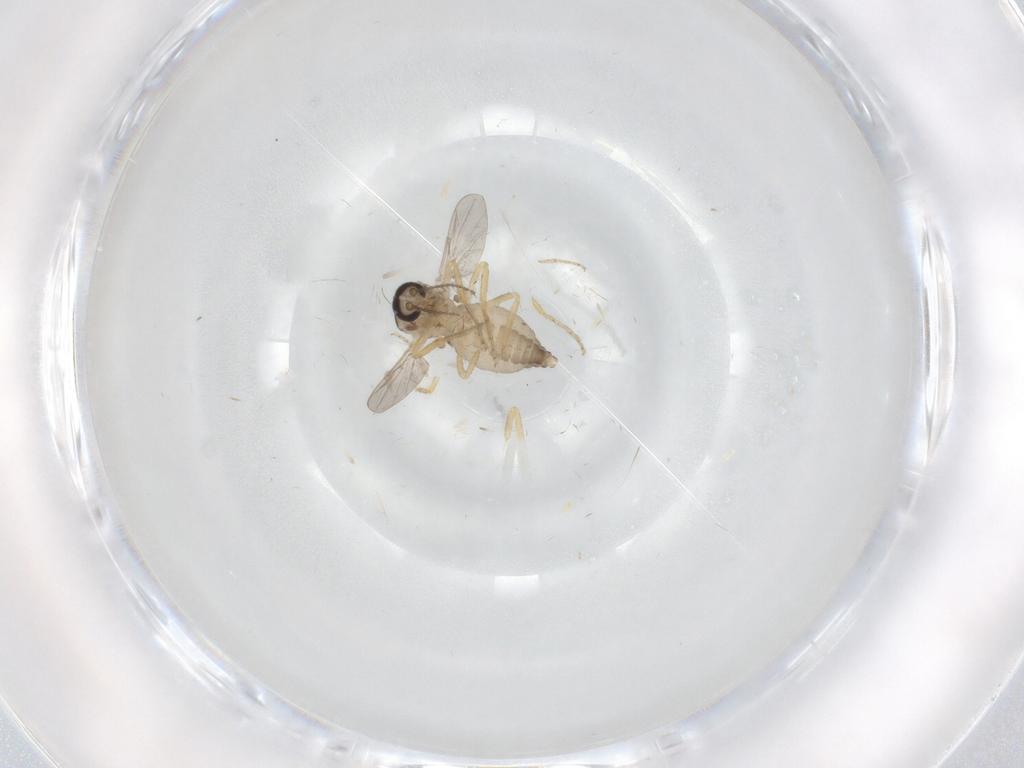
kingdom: Animalia
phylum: Arthropoda
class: Insecta
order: Diptera
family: Ceratopogonidae
